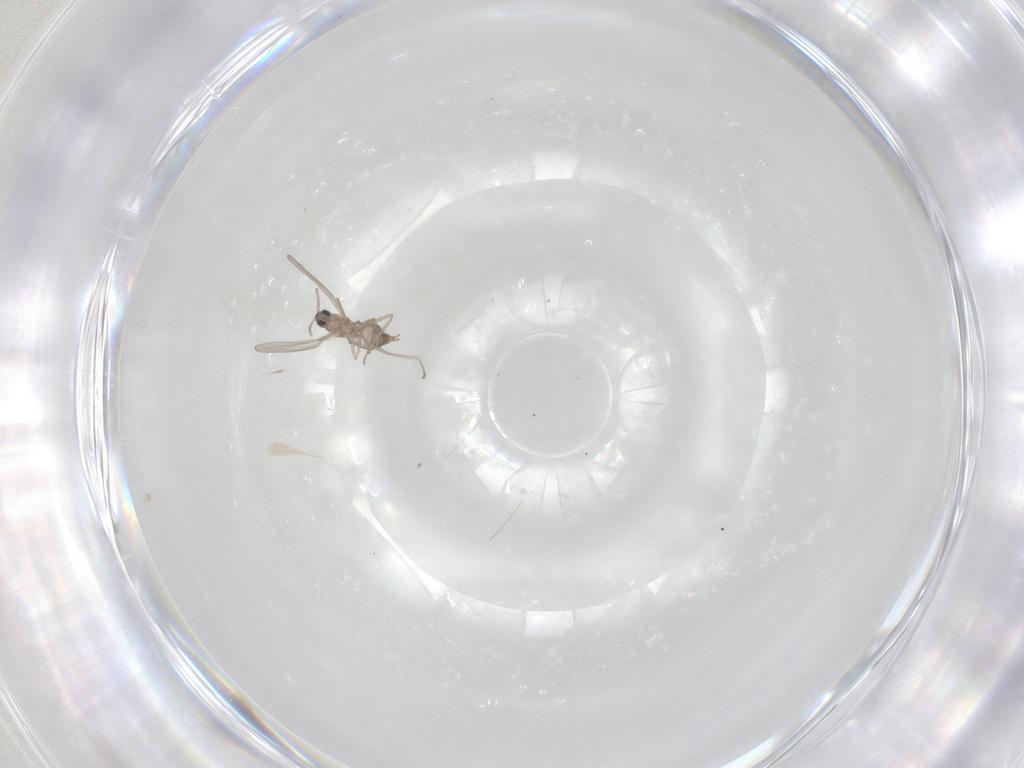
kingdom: Animalia
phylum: Arthropoda
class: Insecta
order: Diptera
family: Cecidomyiidae
